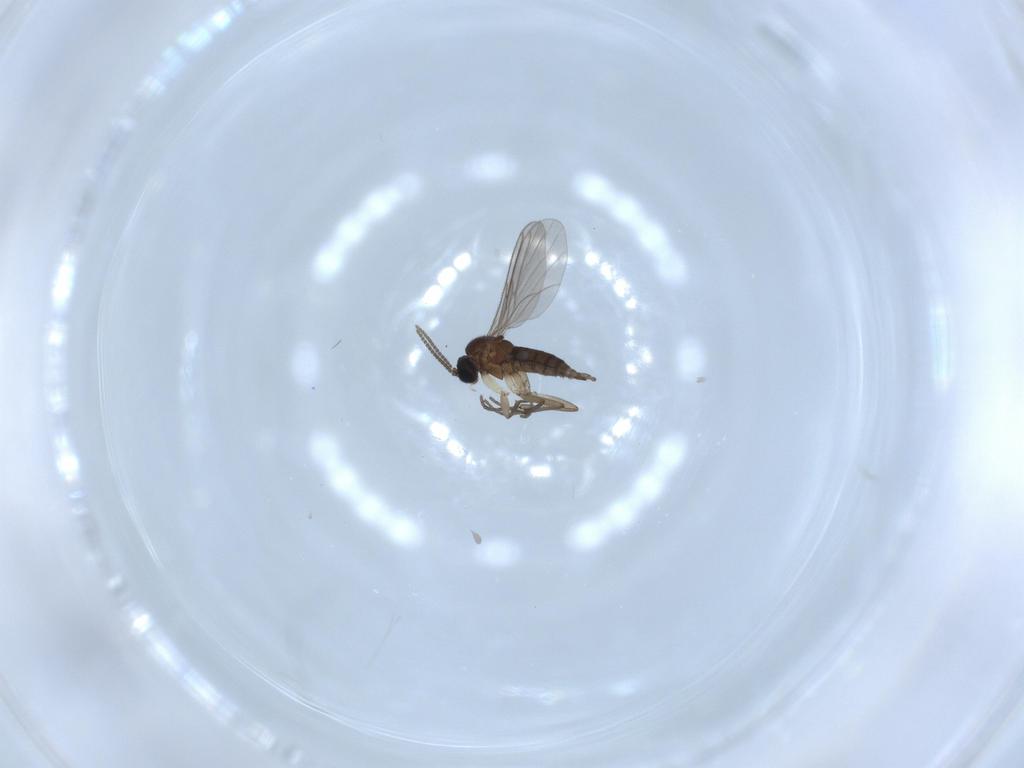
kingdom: Animalia
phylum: Arthropoda
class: Insecta
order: Diptera
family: Sciaridae
